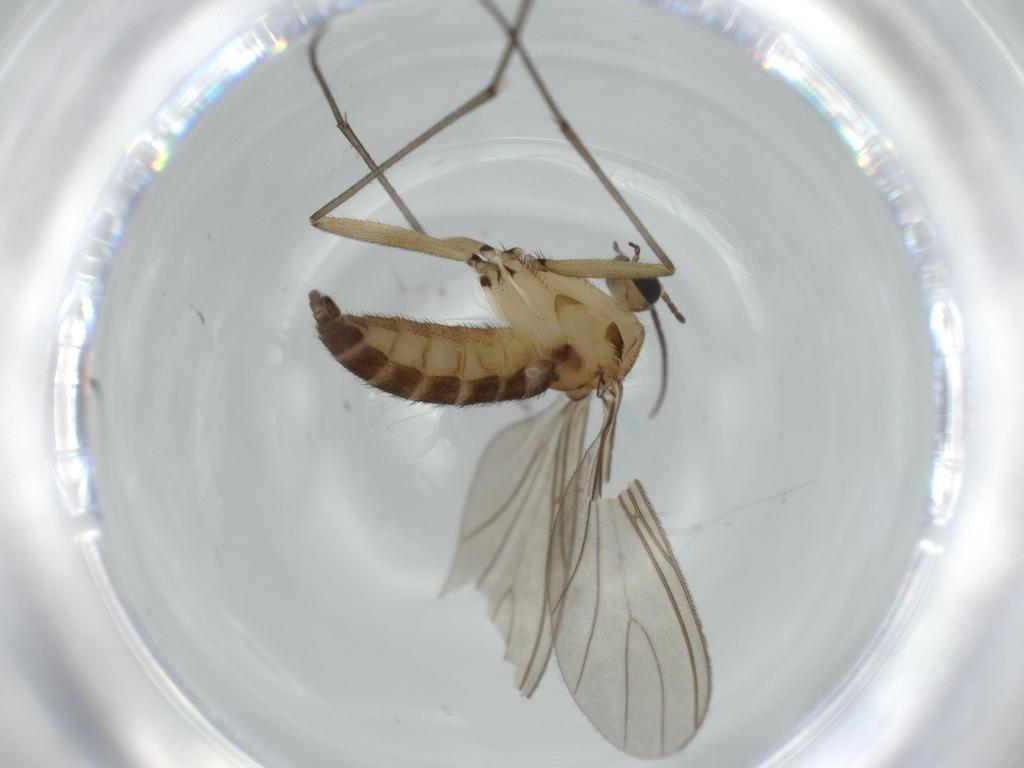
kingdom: Animalia
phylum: Arthropoda
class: Insecta
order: Diptera
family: Sciaridae
